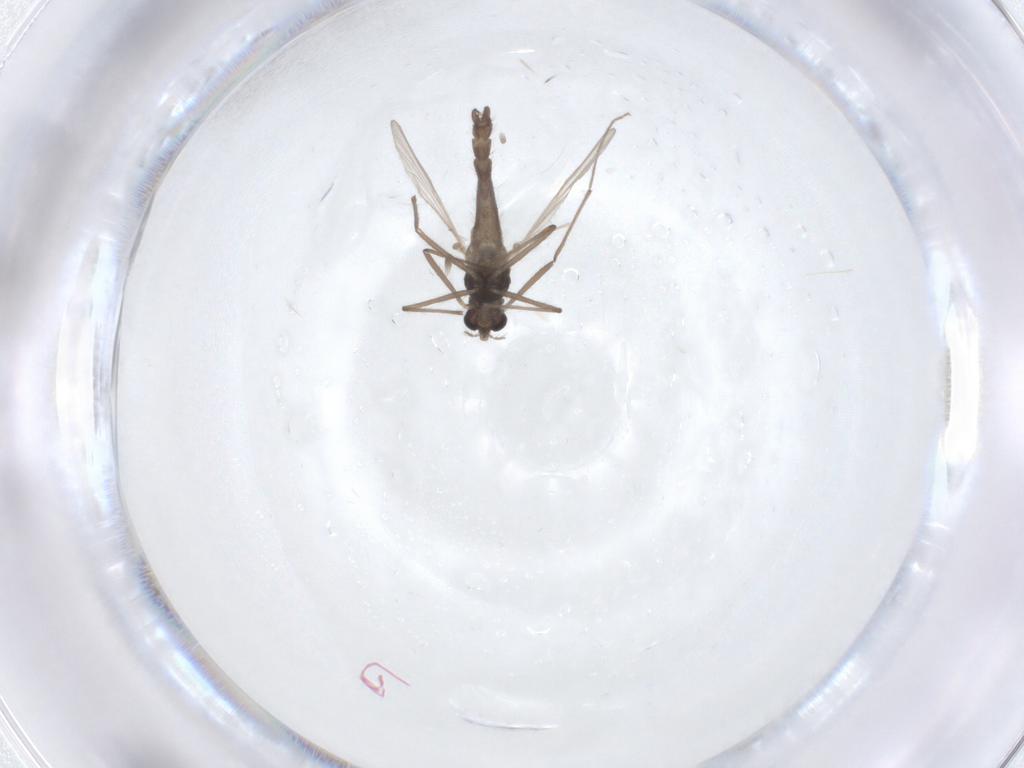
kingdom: Animalia
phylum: Arthropoda
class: Insecta
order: Diptera
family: Chironomidae
